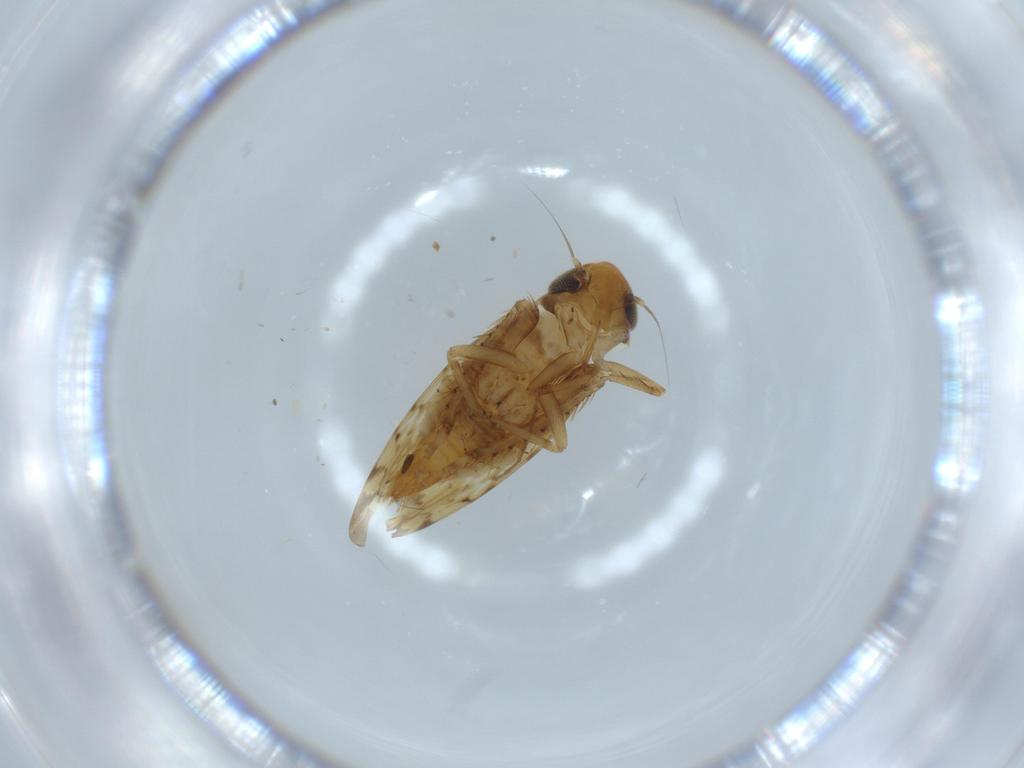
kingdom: Animalia
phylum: Arthropoda
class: Insecta
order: Hemiptera
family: Cicadellidae
